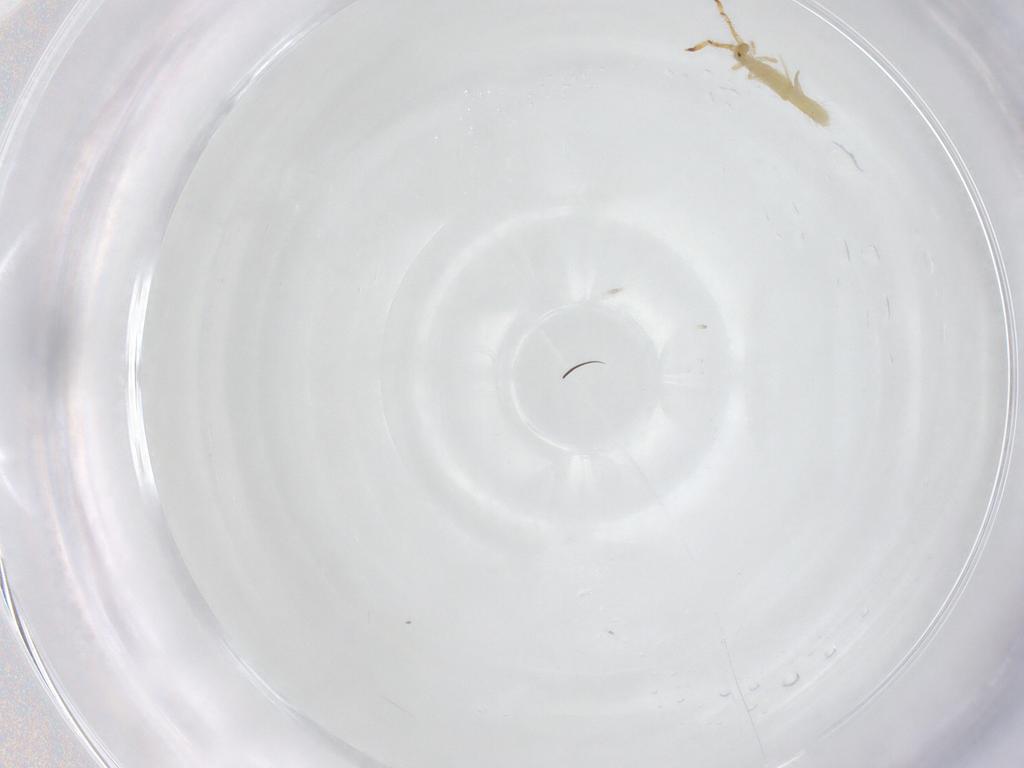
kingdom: Animalia
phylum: Arthropoda
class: Collembola
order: Entomobryomorpha
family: Entomobryidae
